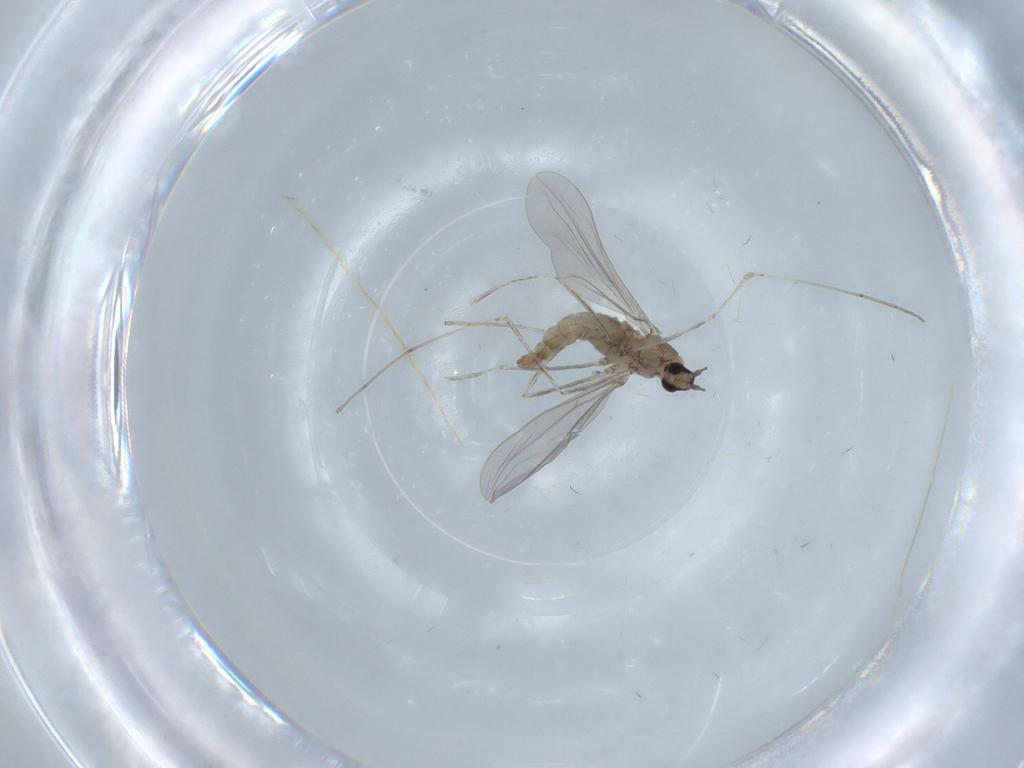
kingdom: Animalia
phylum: Arthropoda
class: Insecta
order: Diptera
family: Cecidomyiidae
